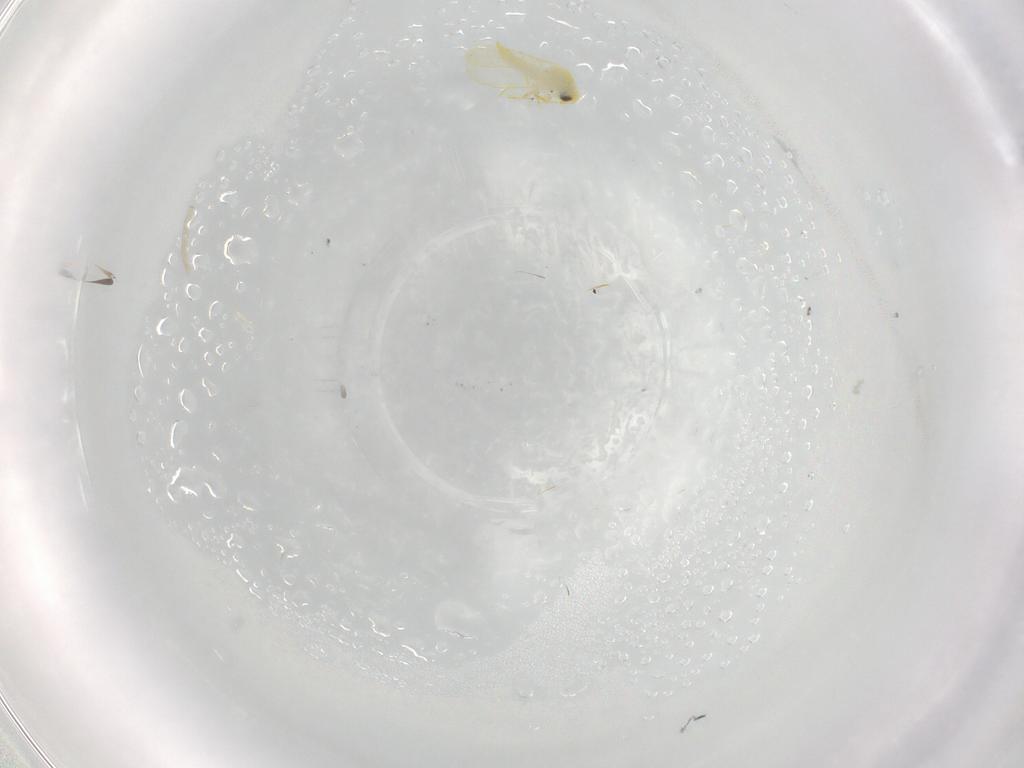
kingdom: Animalia
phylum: Arthropoda
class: Insecta
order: Hemiptera
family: Aleyrodidae
